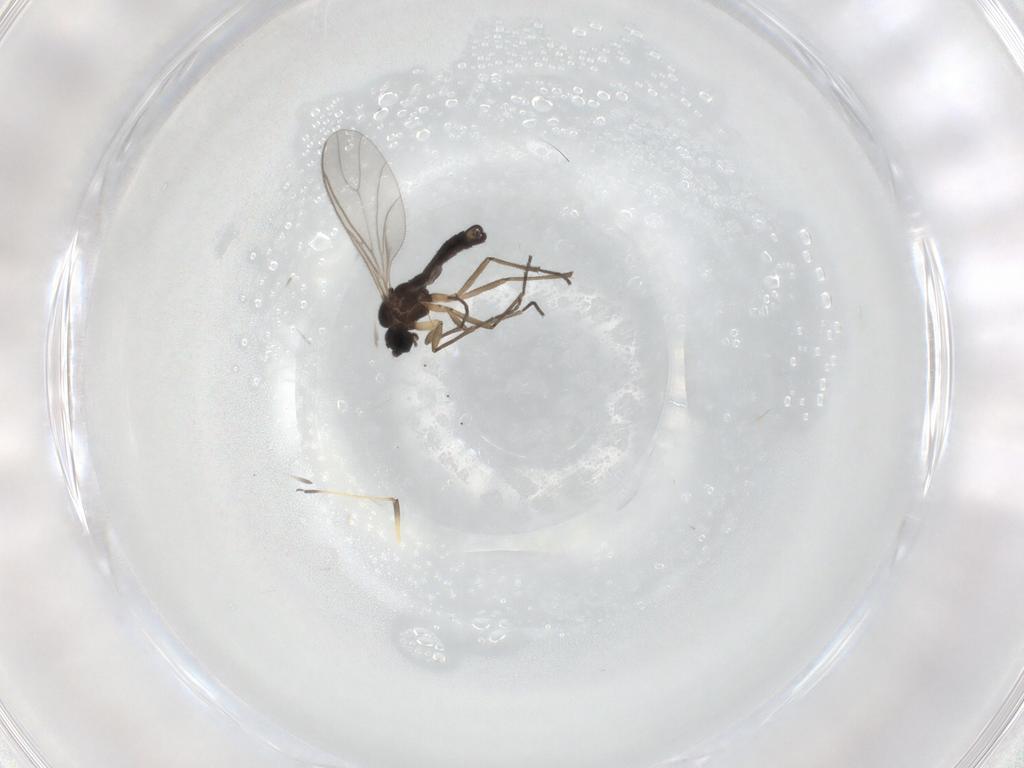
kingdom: Animalia
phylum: Arthropoda
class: Insecta
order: Diptera
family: Sciaridae
